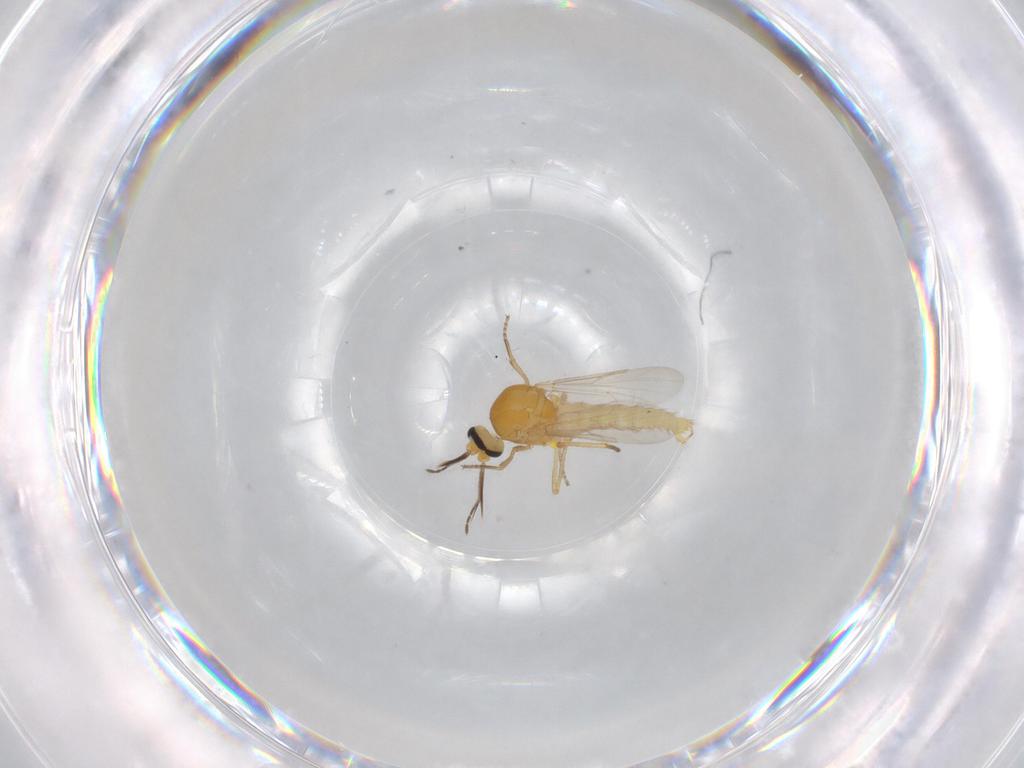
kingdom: Animalia
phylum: Arthropoda
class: Insecta
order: Diptera
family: Ceratopogonidae
